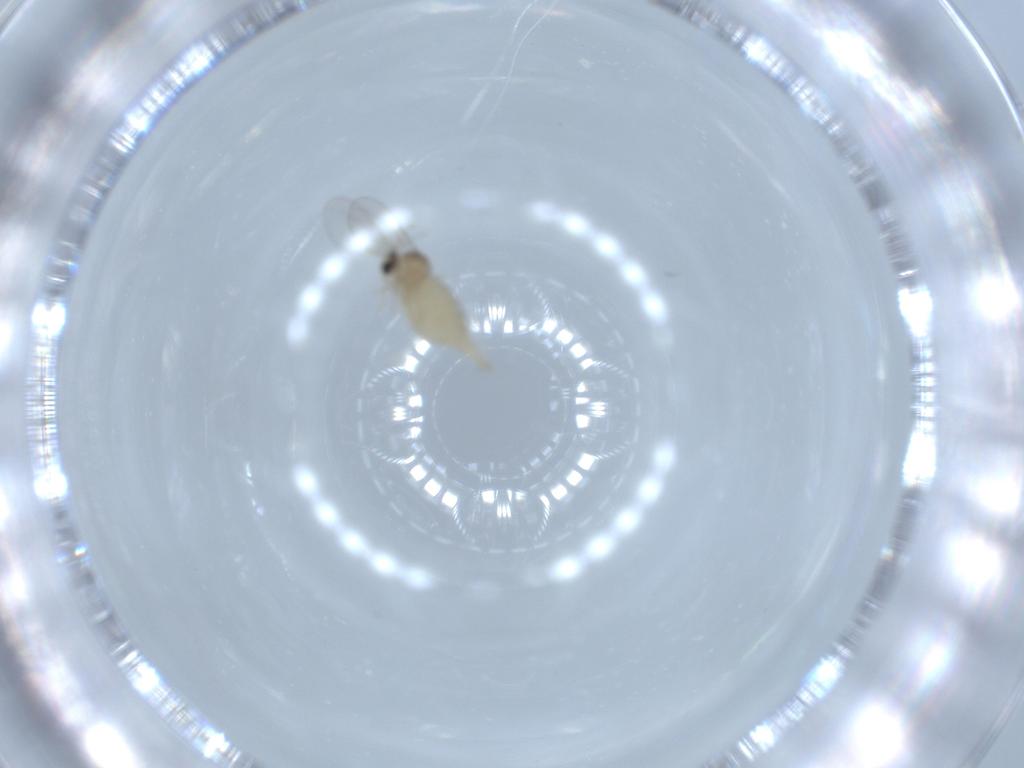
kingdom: Animalia
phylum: Arthropoda
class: Insecta
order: Diptera
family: Cecidomyiidae
